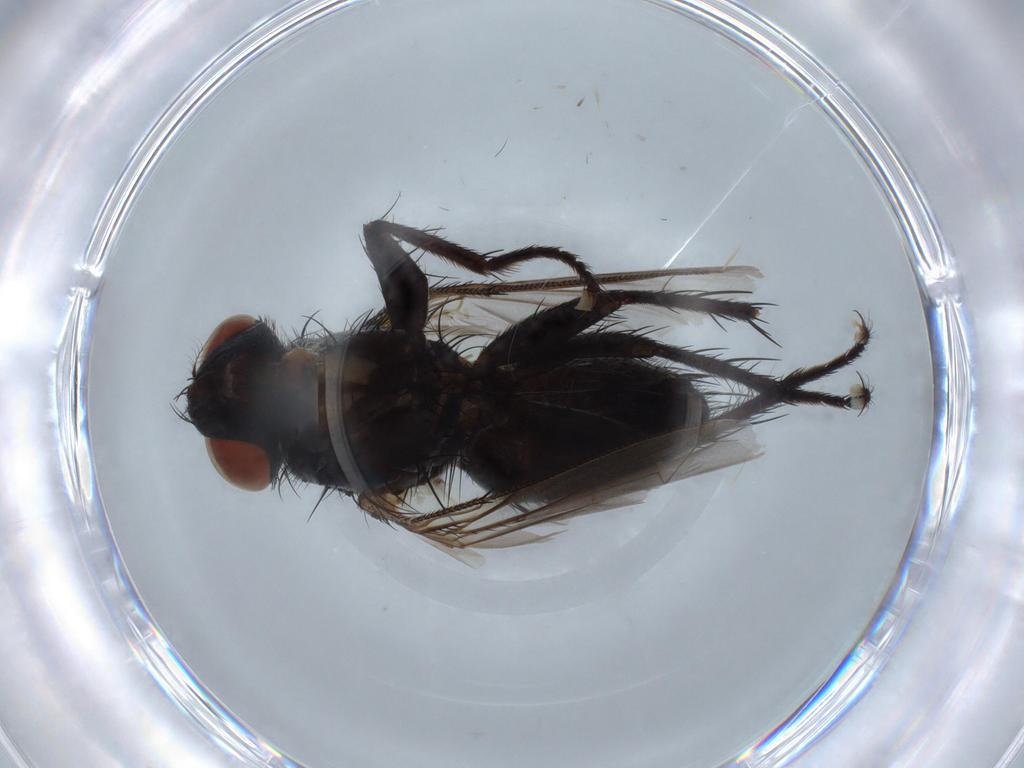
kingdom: Animalia
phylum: Arthropoda
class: Insecta
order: Diptera
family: Sarcophagidae
